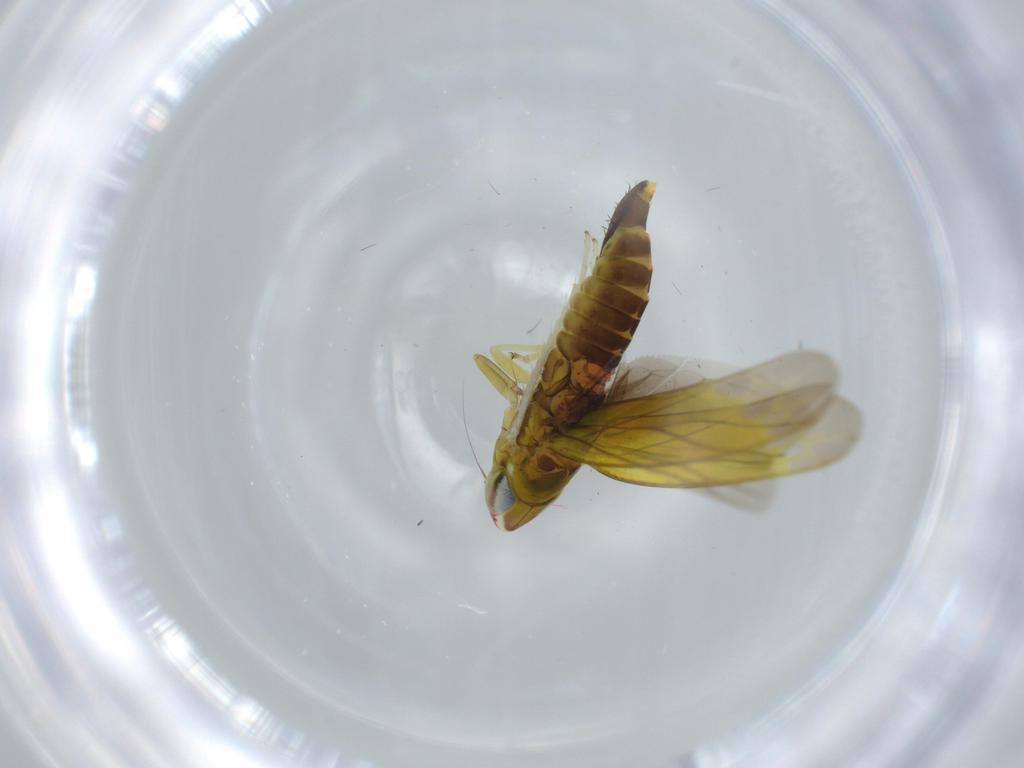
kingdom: Animalia
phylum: Arthropoda
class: Insecta
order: Hemiptera
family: Cicadellidae
